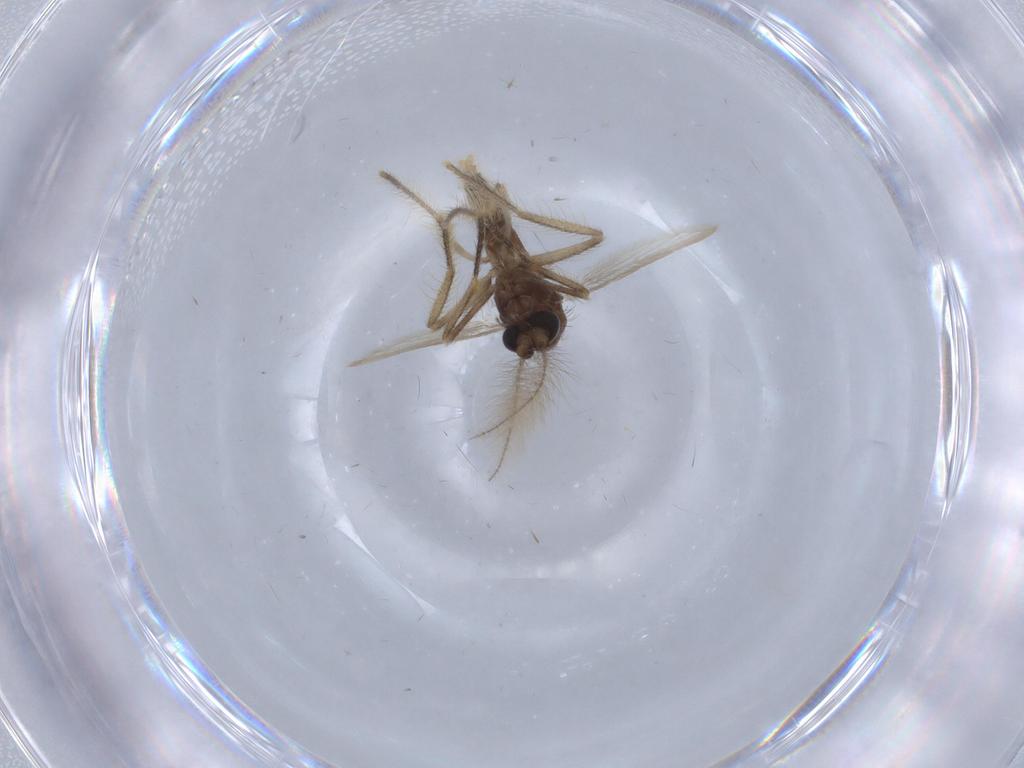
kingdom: Animalia
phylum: Arthropoda
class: Insecta
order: Diptera
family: Corethrellidae
